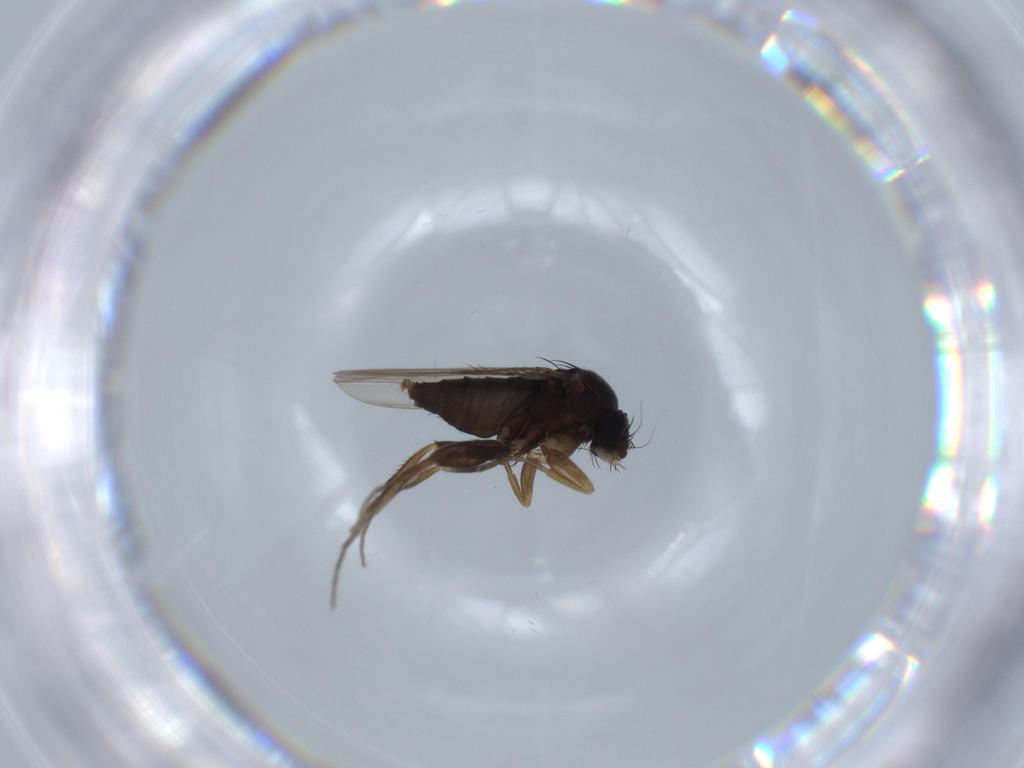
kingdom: Animalia
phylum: Arthropoda
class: Insecta
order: Diptera
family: Phoridae
